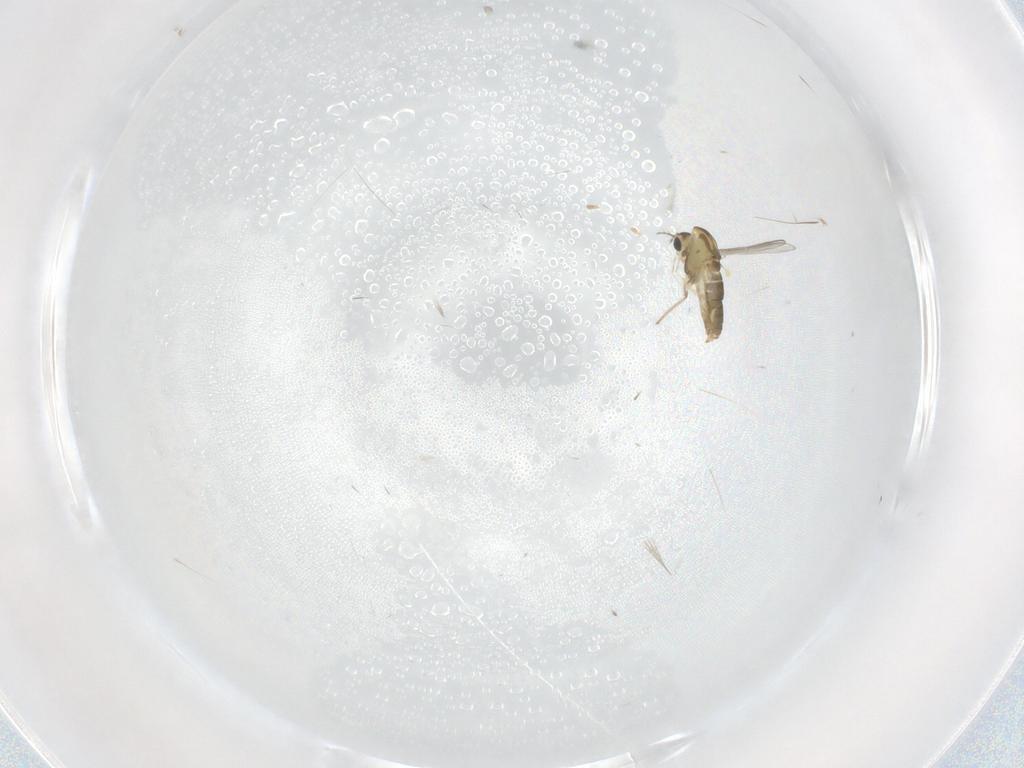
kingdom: Animalia
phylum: Arthropoda
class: Insecta
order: Diptera
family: Chironomidae
